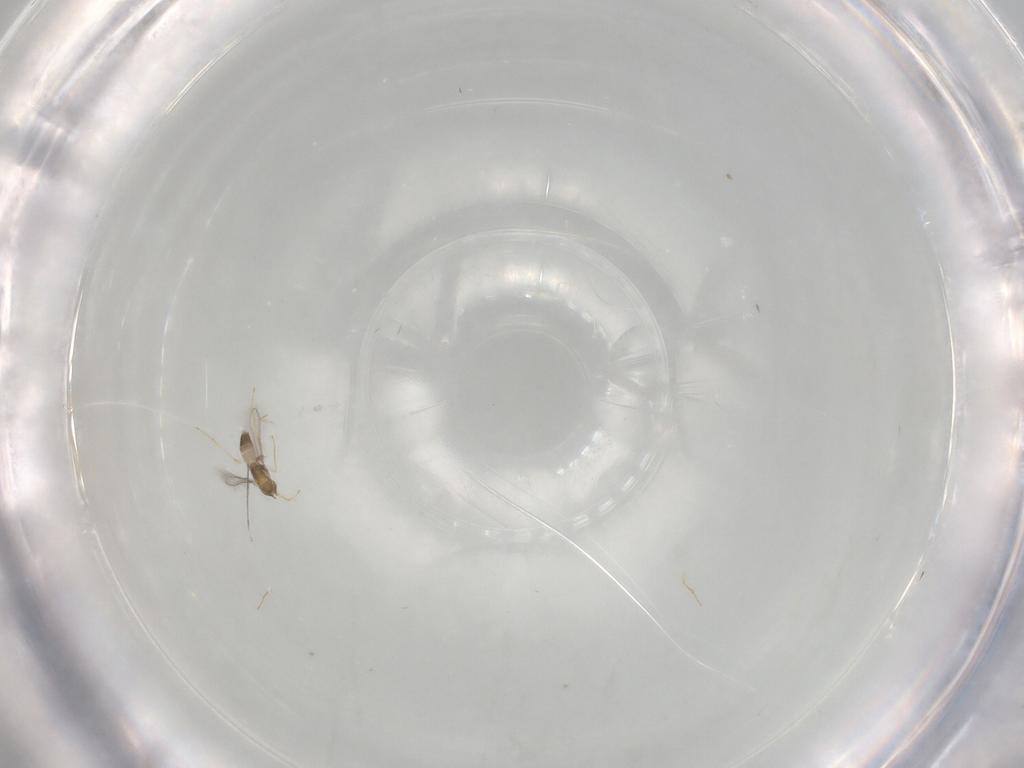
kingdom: Animalia
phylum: Arthropoda
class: Insecta
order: Hymenoptera
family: Mymaridae
